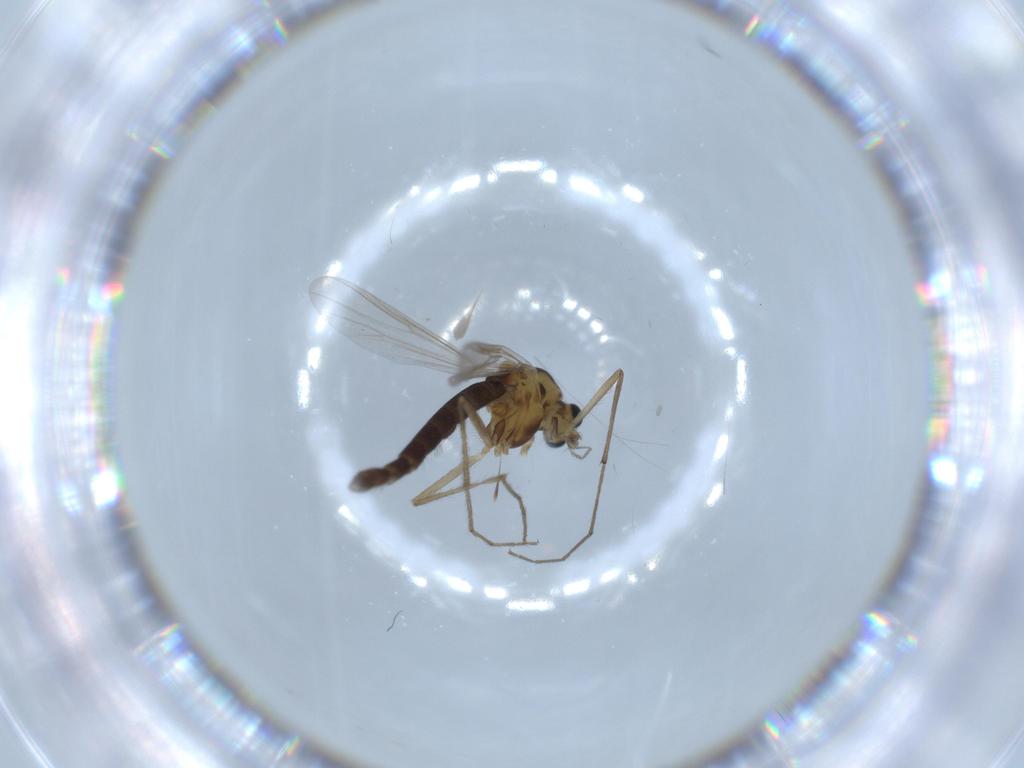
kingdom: Animalia
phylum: Arthropoda
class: Insecta
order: Diptera
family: Chironomidae
